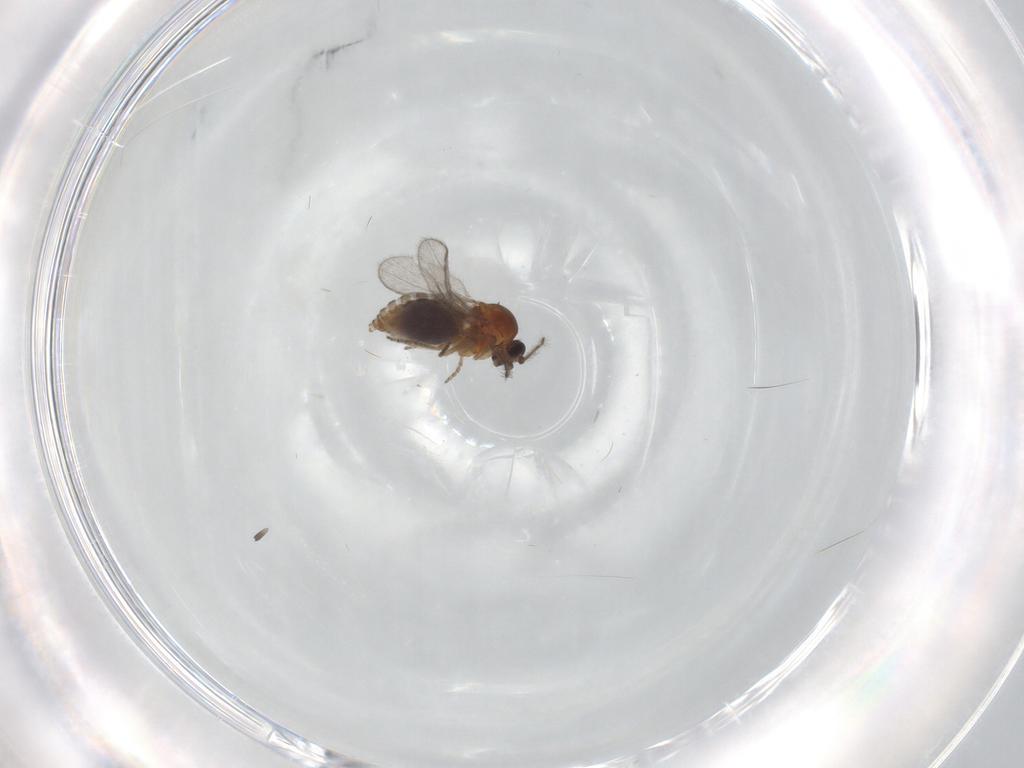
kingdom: Animalia
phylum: Arthropoda
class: Insecta
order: Diptera
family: Ceratopogonidae
